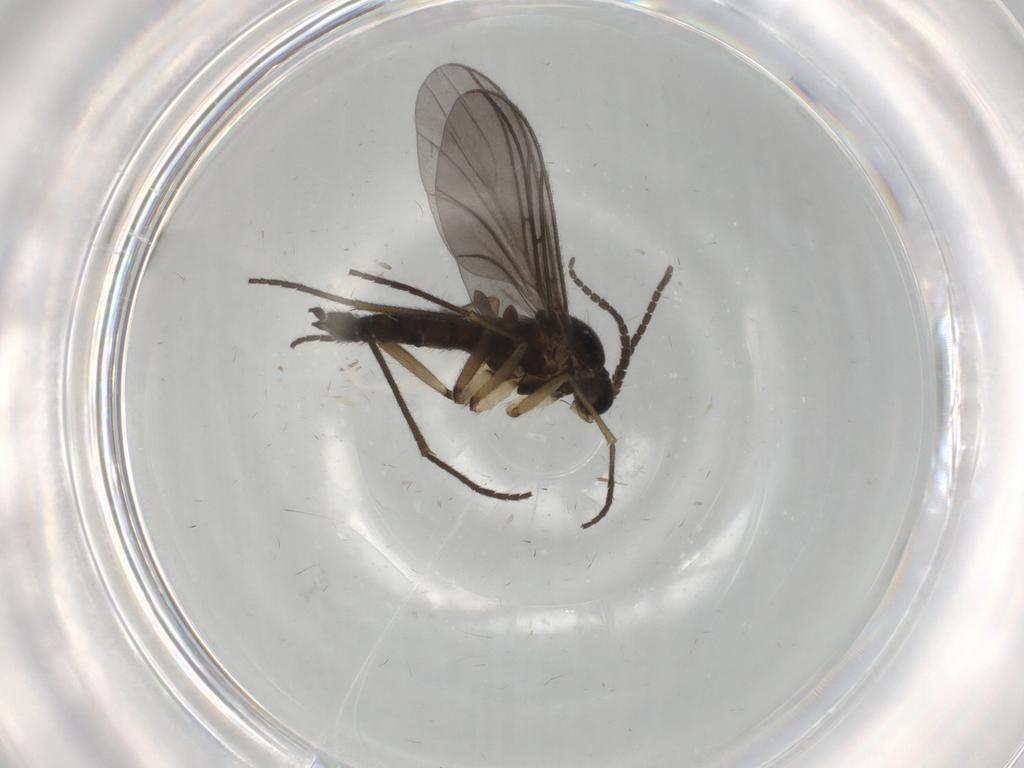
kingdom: Animalia
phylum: Arthropoda
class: Insecta
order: Diptera
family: Sciaridae
